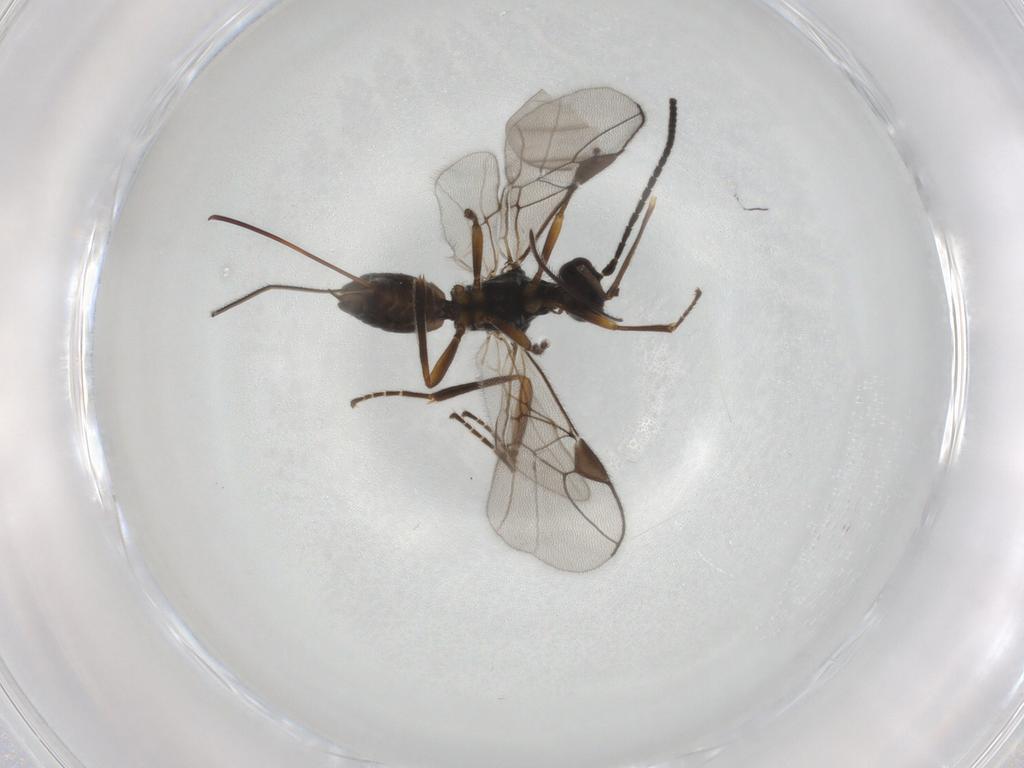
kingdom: Animalia
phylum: Arthropoda
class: Insecta
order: Hymenoptera
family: Braconidae
